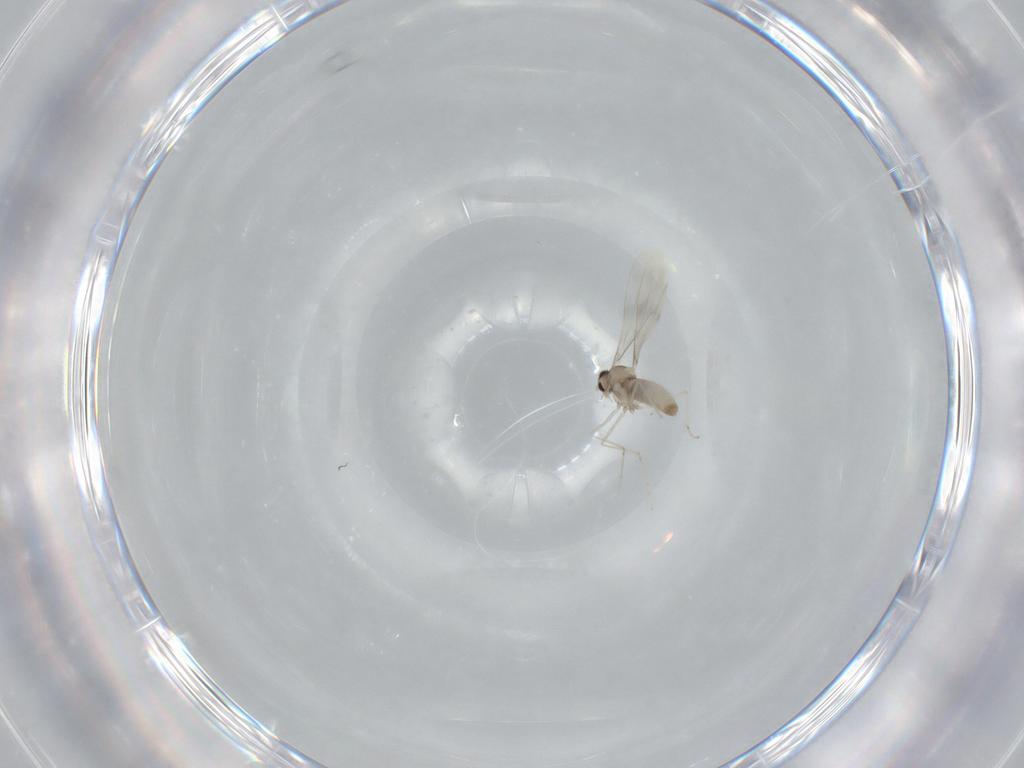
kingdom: Animalia
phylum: Arthropoda
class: Insecta
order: Diptera
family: Cecidomyiidae
